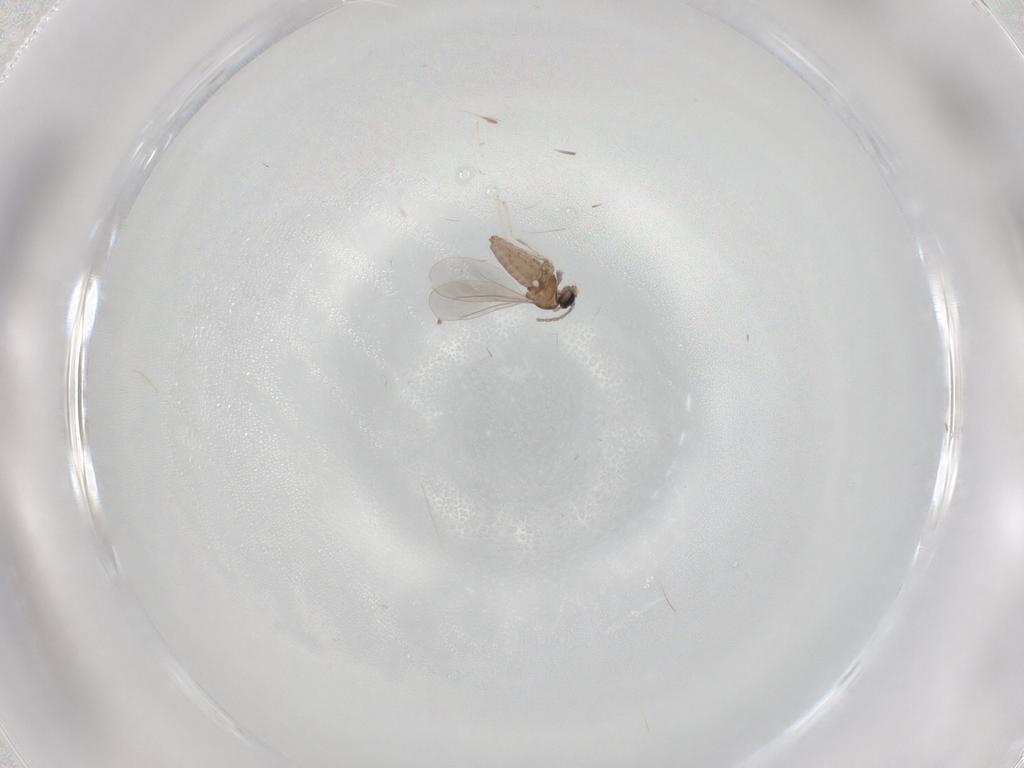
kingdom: Animalia
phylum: Arthropoda
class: Insecta
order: Diptera
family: Cecidomyiidae
